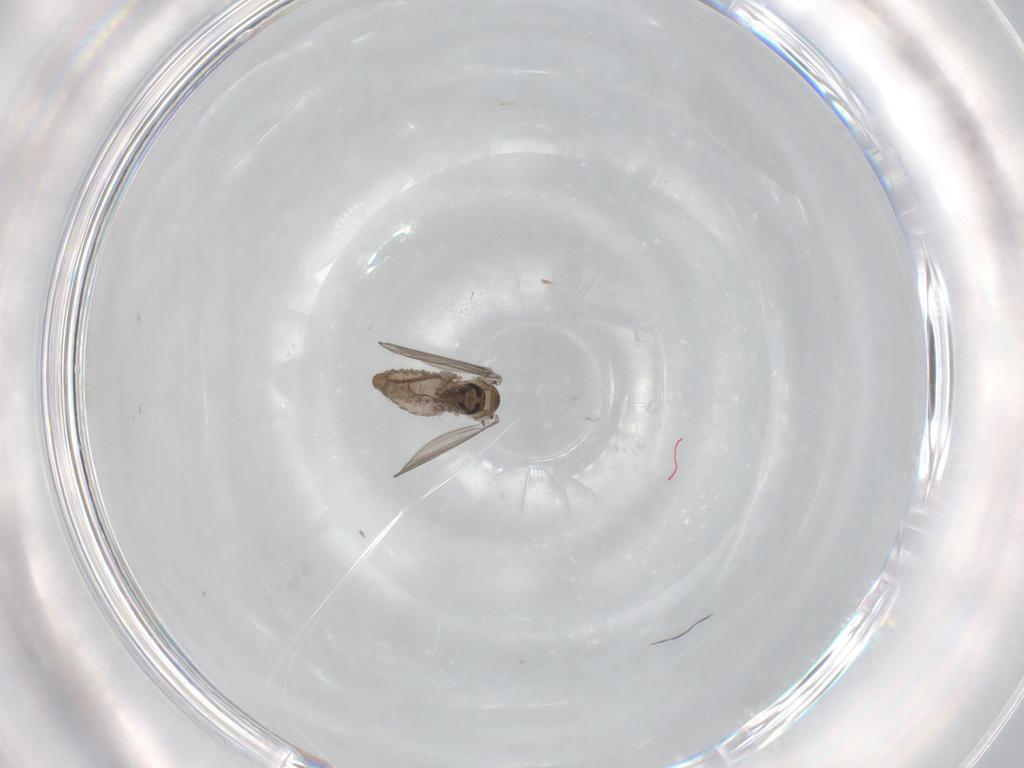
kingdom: Animalia
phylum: Arthropoda
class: Insecta
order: Diptera
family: Psychodidae
